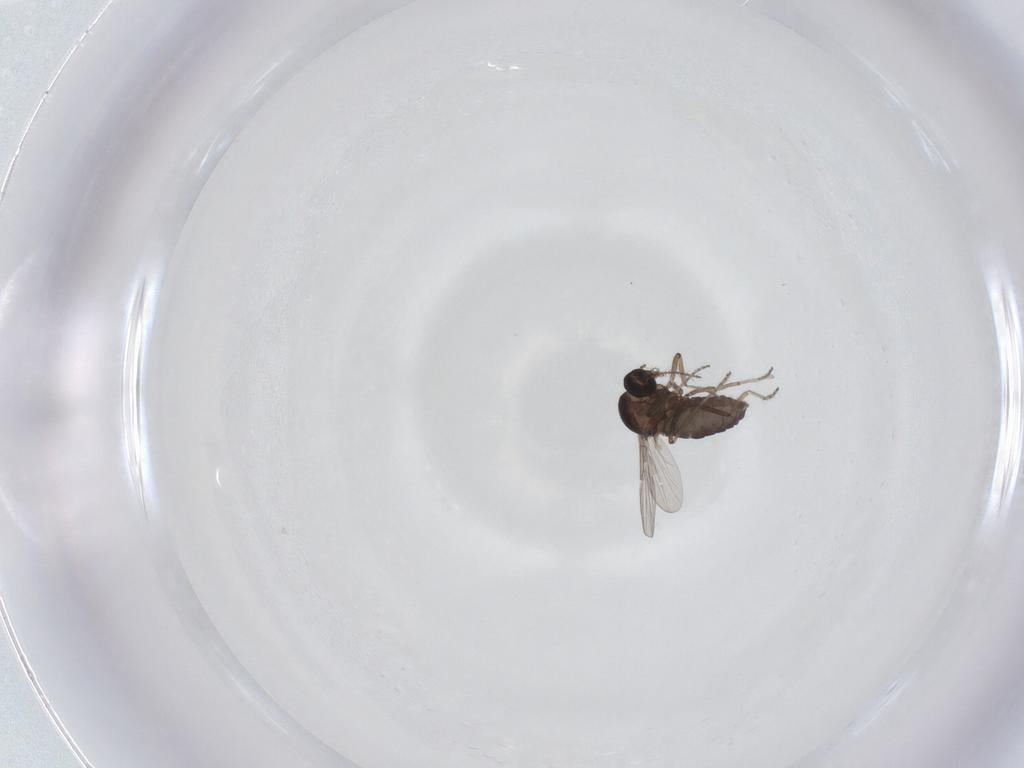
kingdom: Animalia
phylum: Arthropoda
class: Insecta
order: Diptera
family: Ceratopogonidae
